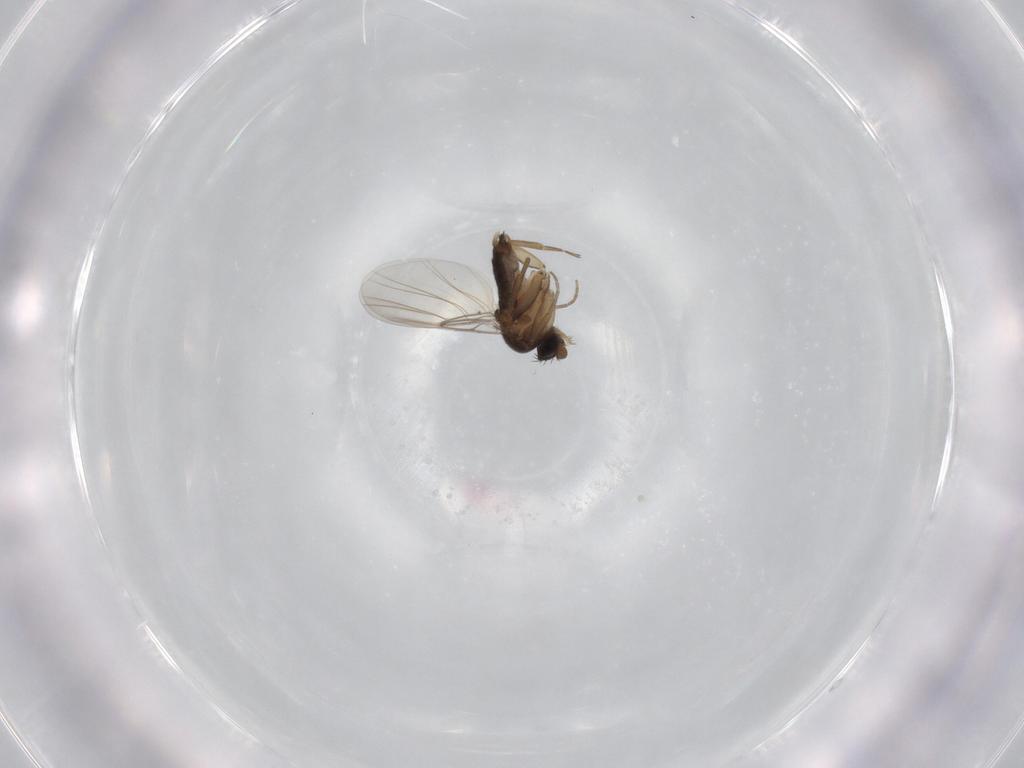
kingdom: Animalia
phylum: Arthropoda
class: Insecta
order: Diptera
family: Phoridae
